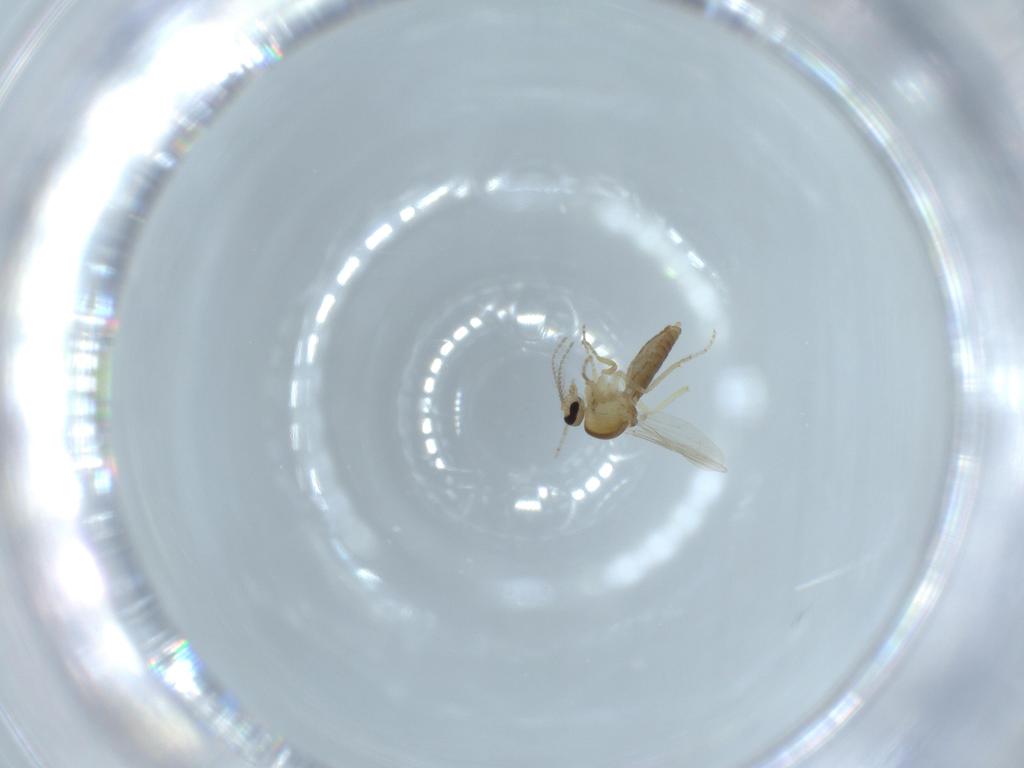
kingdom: Animalia
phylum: Arthropoda
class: Insecta
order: Diptera
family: Ceratopogonidae
